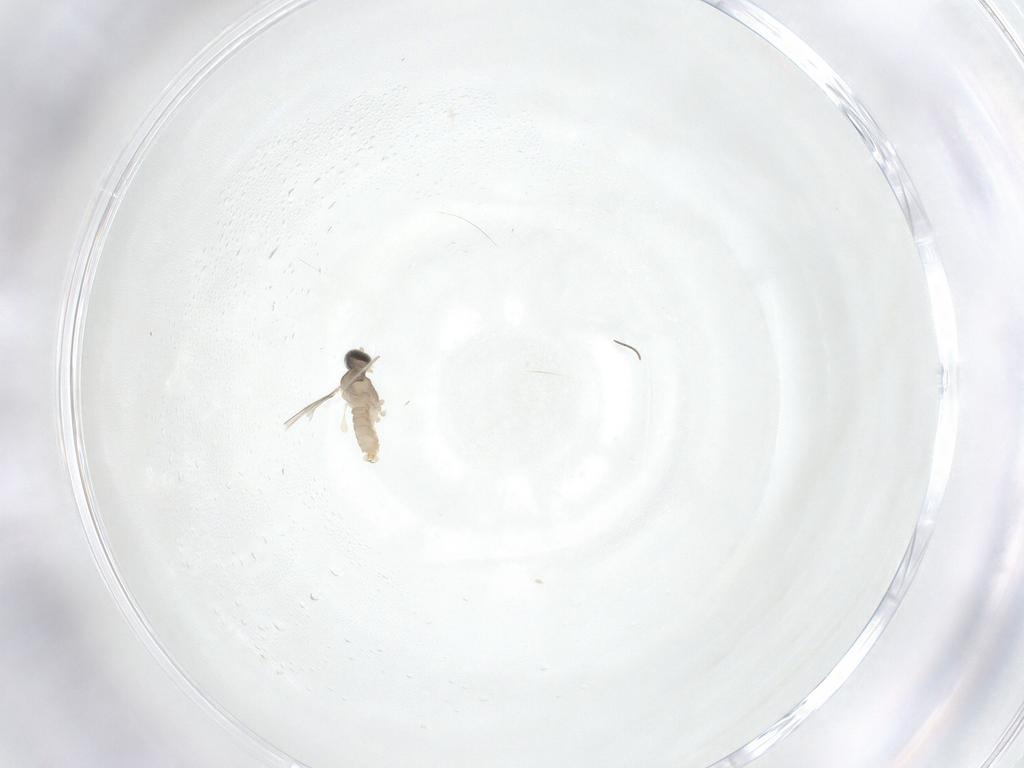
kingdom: Animalia
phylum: Arthropoda
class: Insecta
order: Diptera
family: Cecidomyiidae
